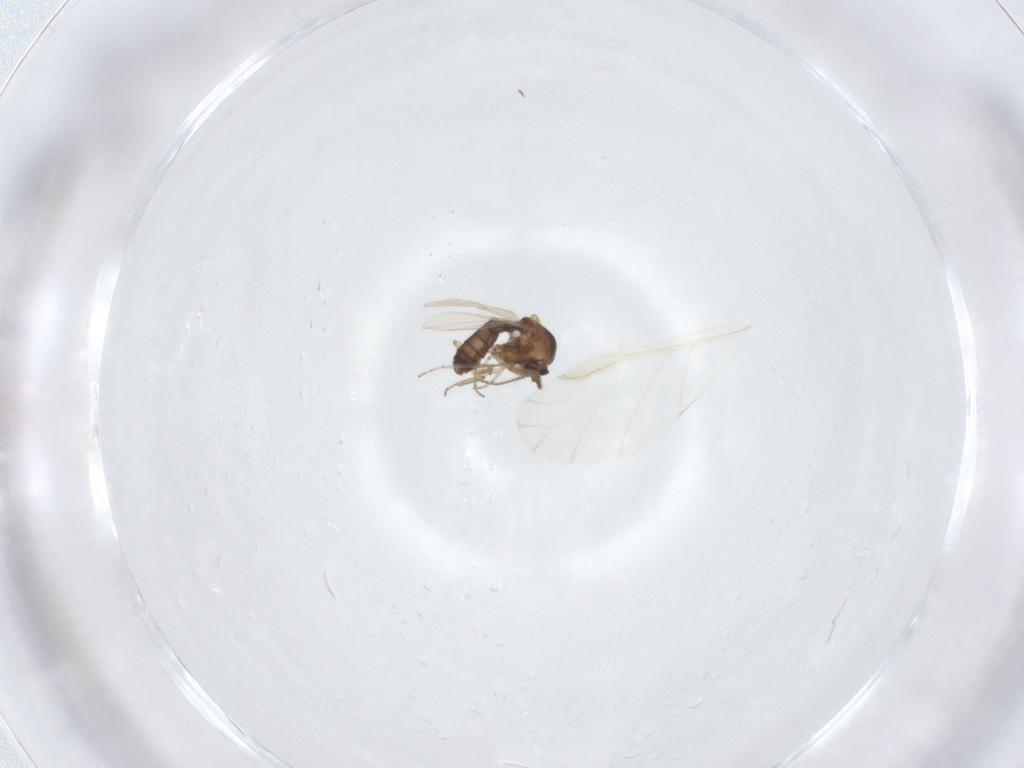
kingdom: Animalia
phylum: Arthropoda
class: Insecta
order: Diptera
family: Ceratopogonidae
